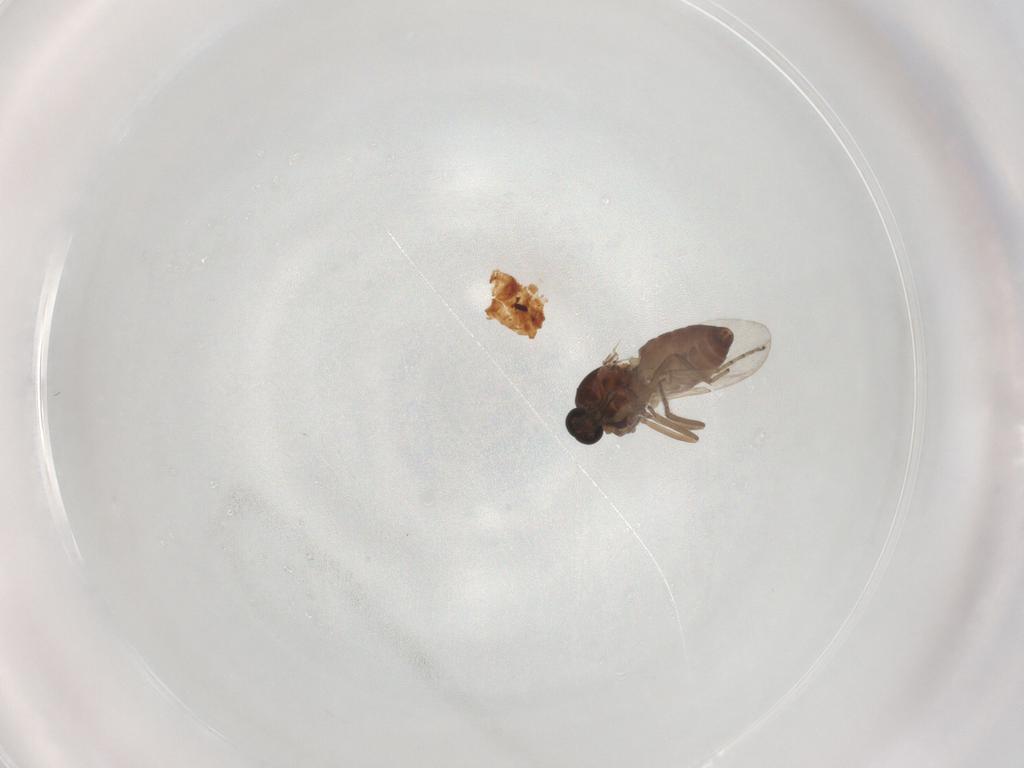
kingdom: Animalia
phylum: Arthropoda
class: Insecta
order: Diptera
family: Ceratopogonidae
